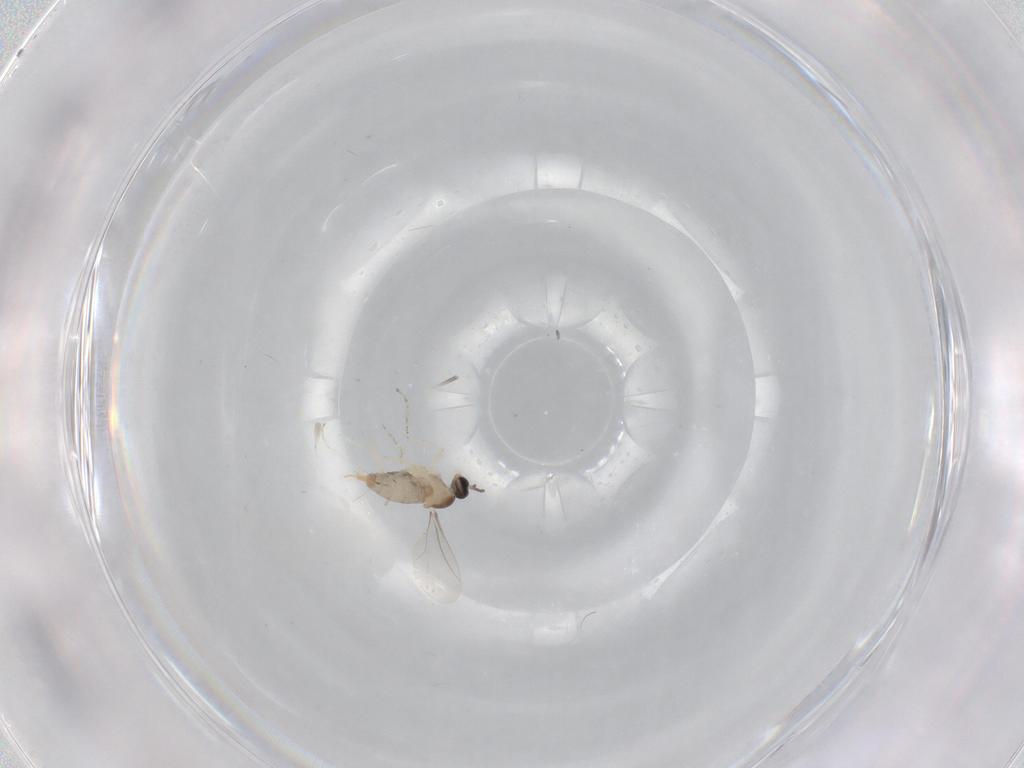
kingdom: Animalia
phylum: Arthropoda
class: Insecta
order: Diptera
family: Cecidomyiidae
